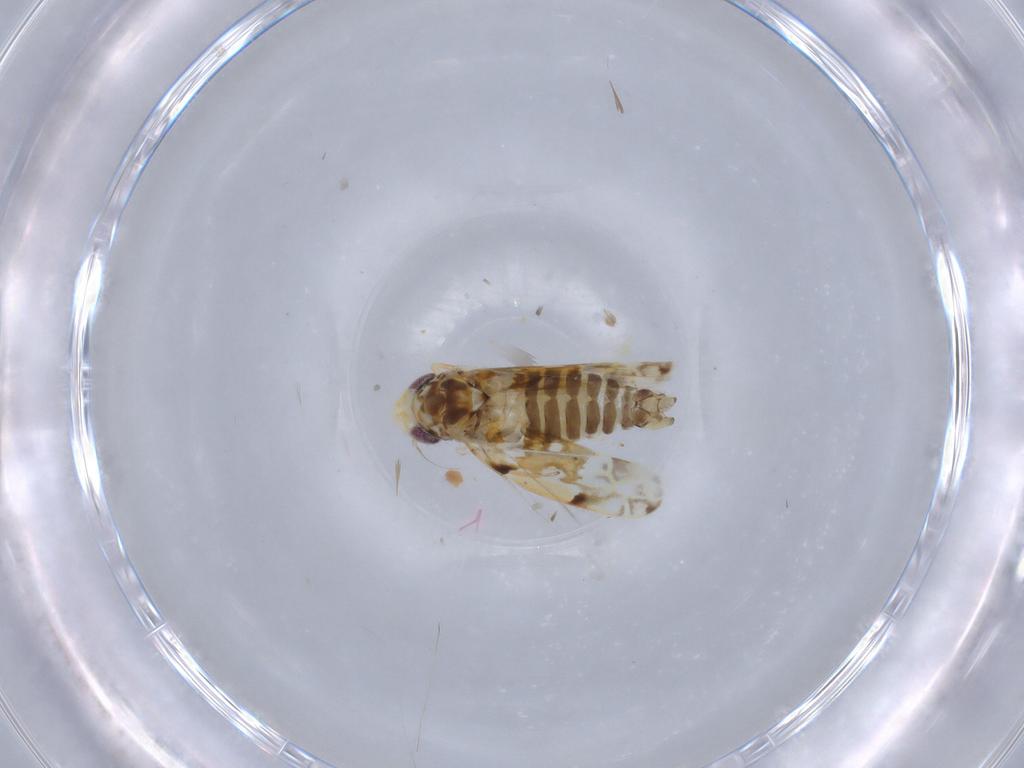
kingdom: Animalia
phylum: Arthropoda
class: Insecta
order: Hemiptera
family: Cicadellidae
